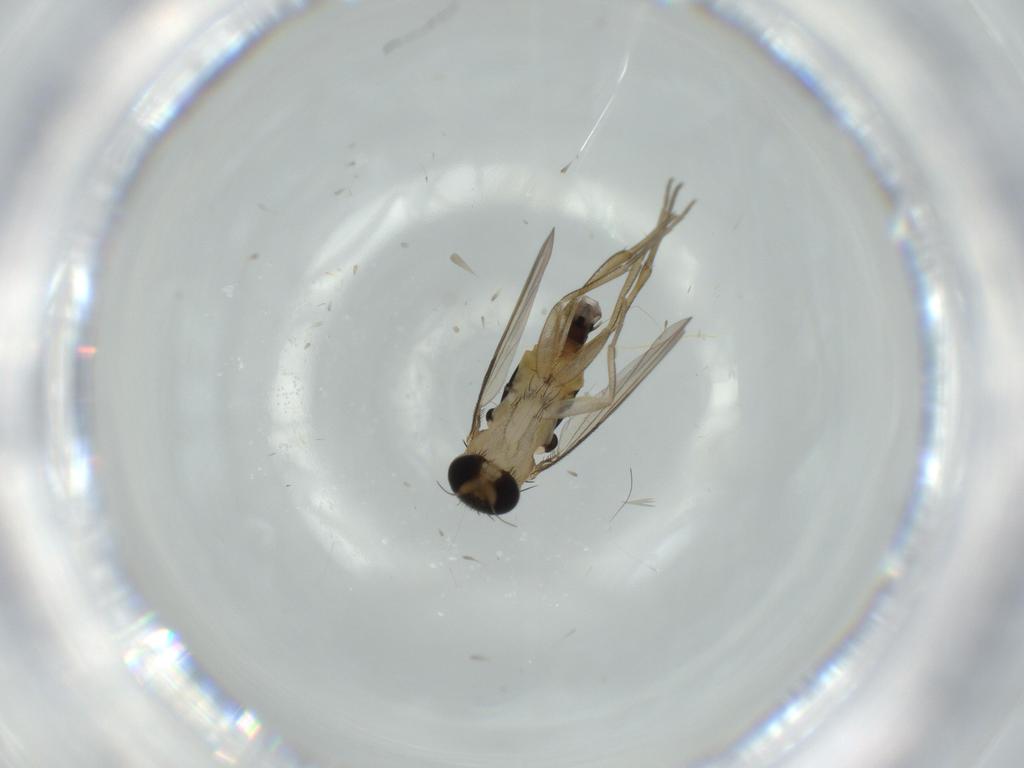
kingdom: Animalia
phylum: Arthropoda
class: Insecta
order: Diptera
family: Phoridae
